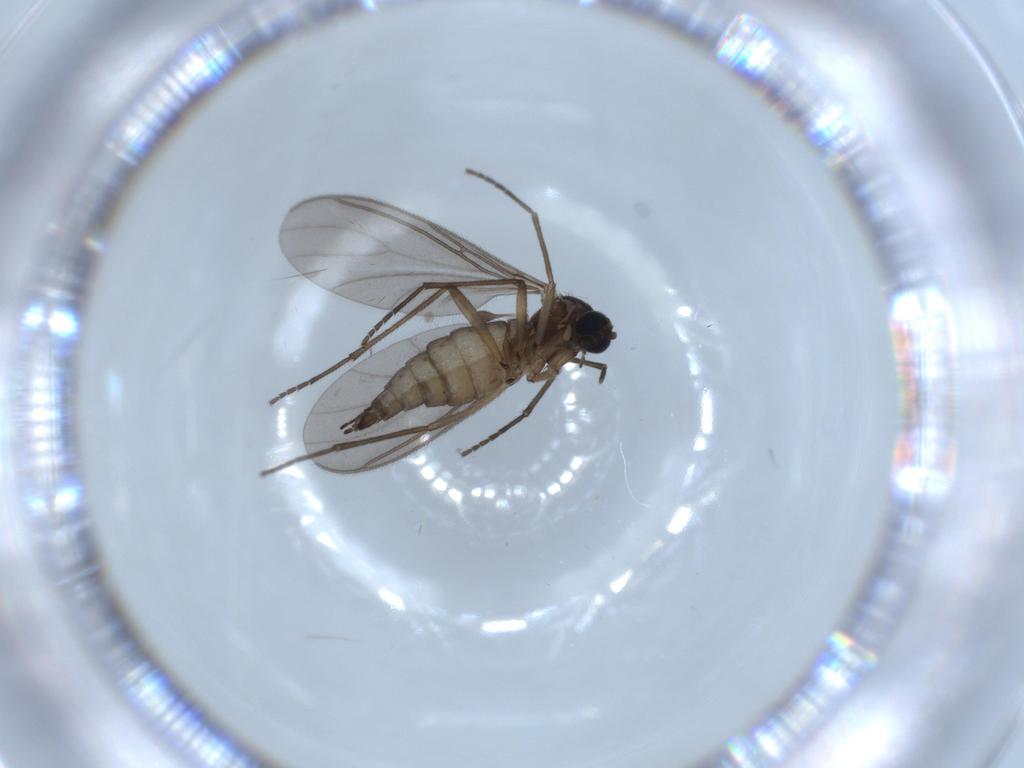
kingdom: Animalia
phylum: Arthropoda
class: Insecta
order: Diptera
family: Sciaridae
